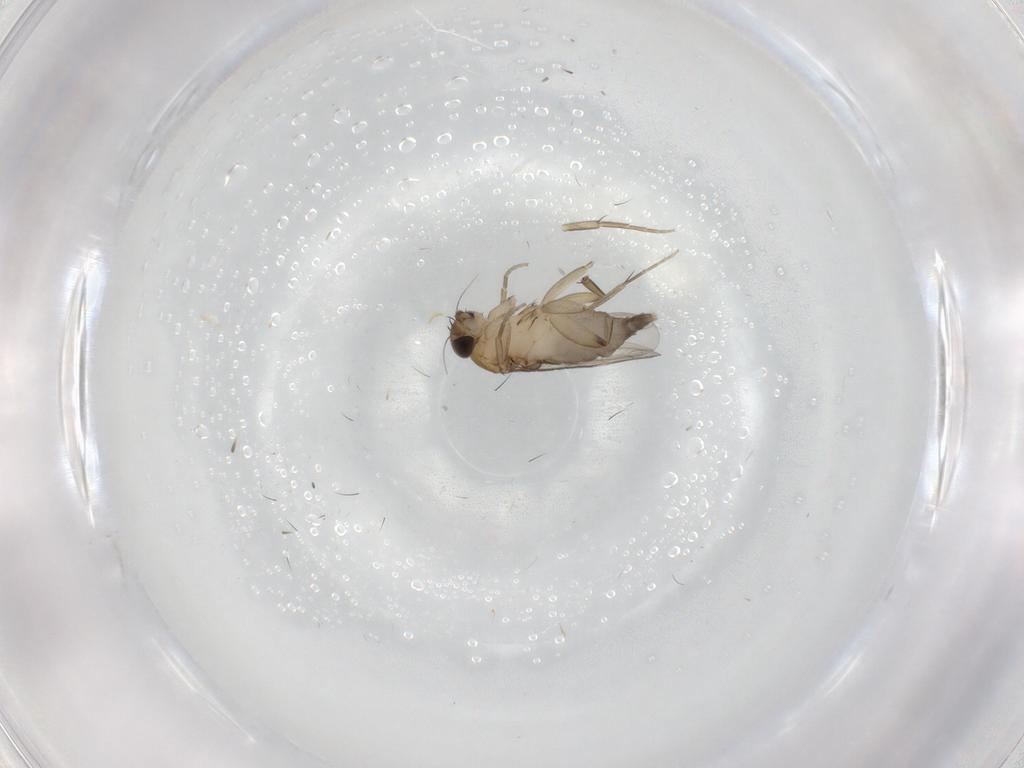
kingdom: Animalia
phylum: Arthropoda
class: Insecta
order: Diptera
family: Phoridae
